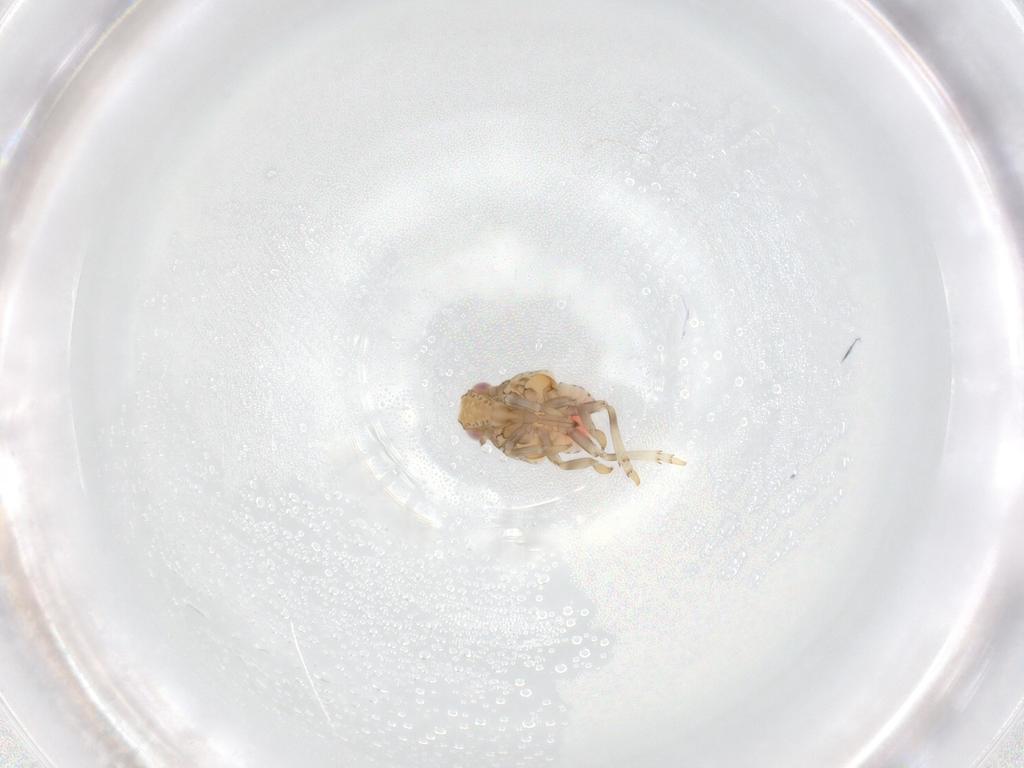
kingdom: Animalia
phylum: Arthropoda
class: Insecta
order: Hemiptera
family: Nogodinidae
